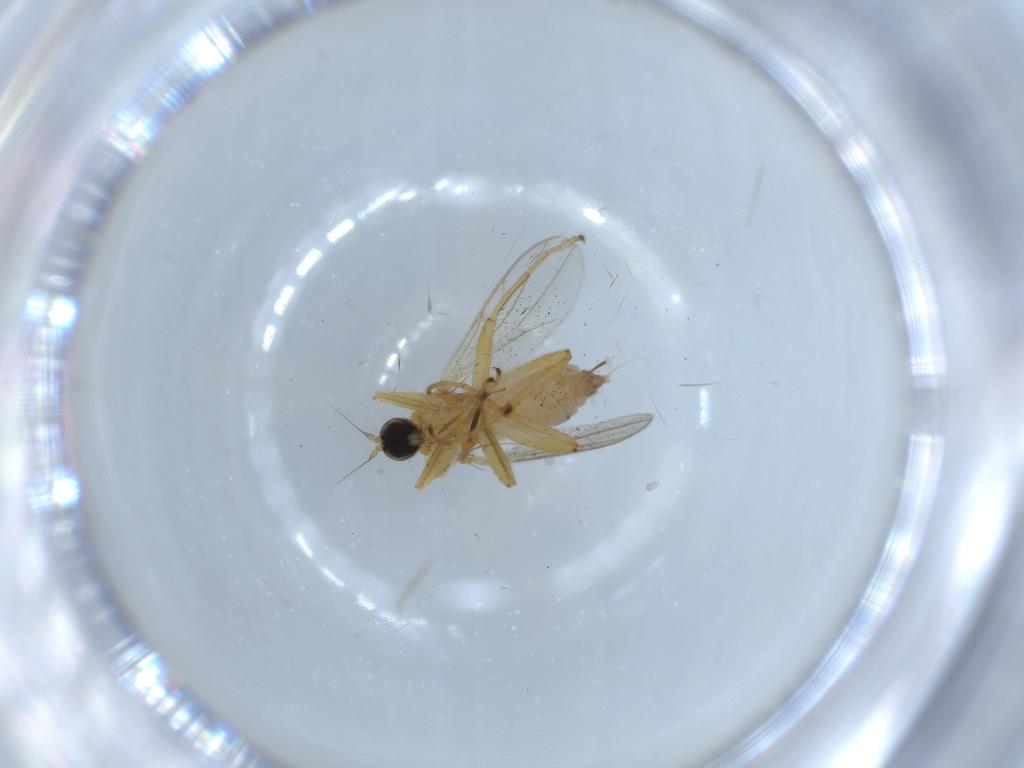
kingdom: Animalia
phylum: Arthropoda
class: Insecta
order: Diptera
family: Hybotidae
